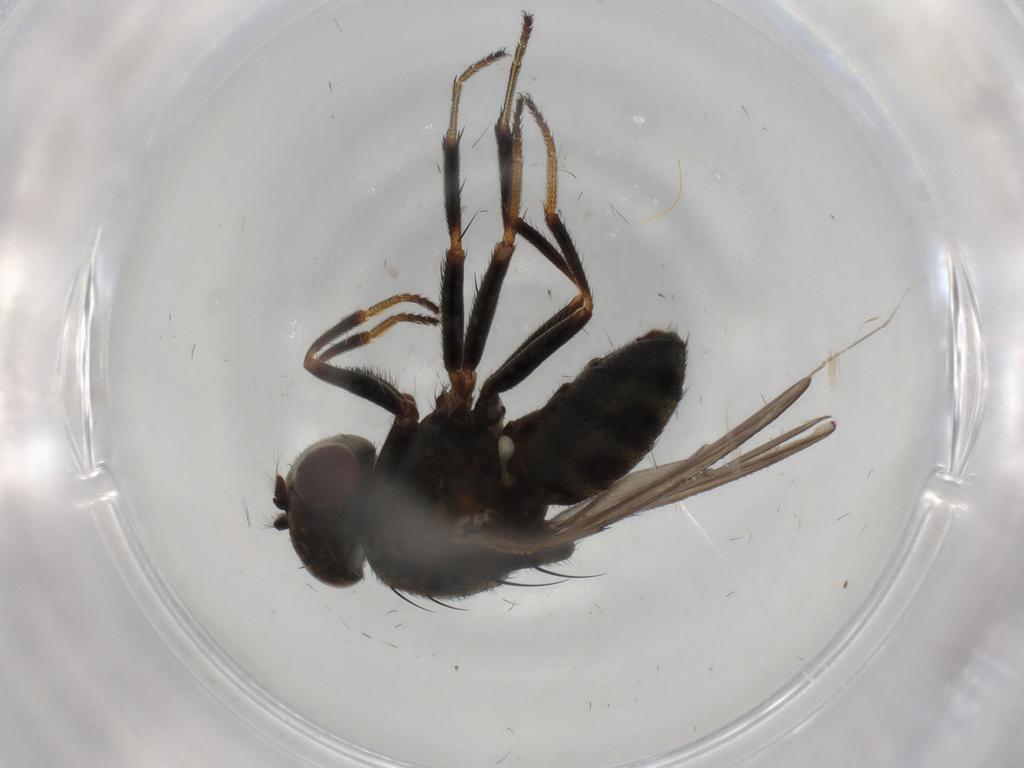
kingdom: Animalia
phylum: Arthropoda
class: Insecta
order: Diptera
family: Ephydridae
